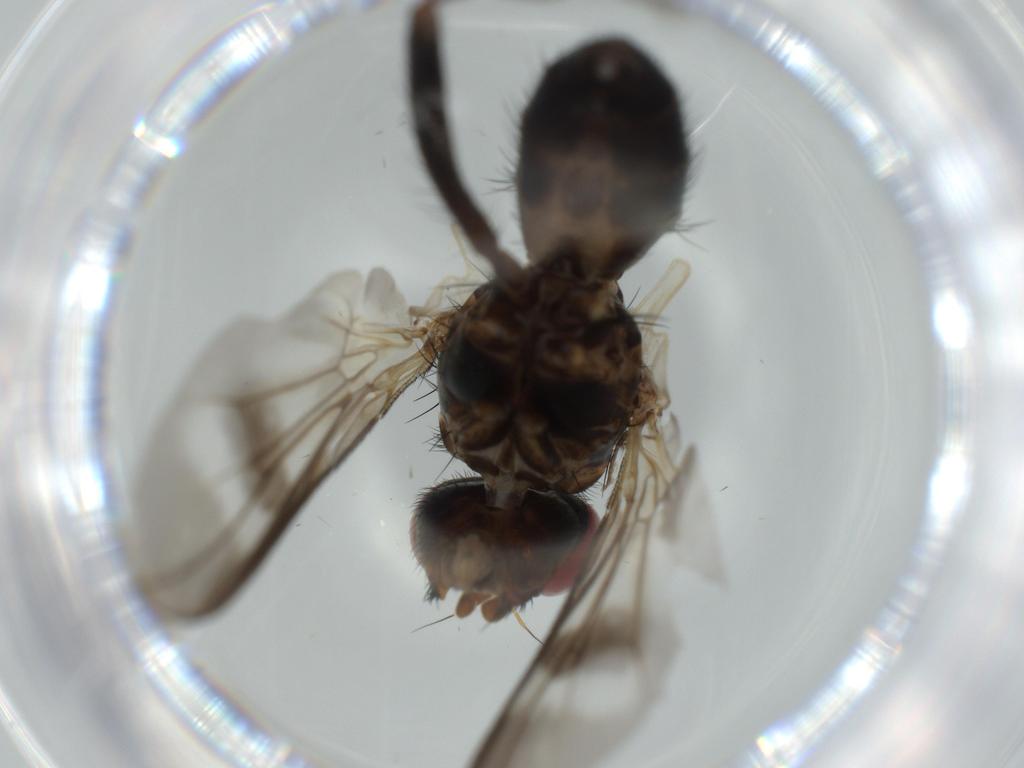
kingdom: Animalia
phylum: Arthropoda
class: Insecta
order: Diptera
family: Calliphoridae
